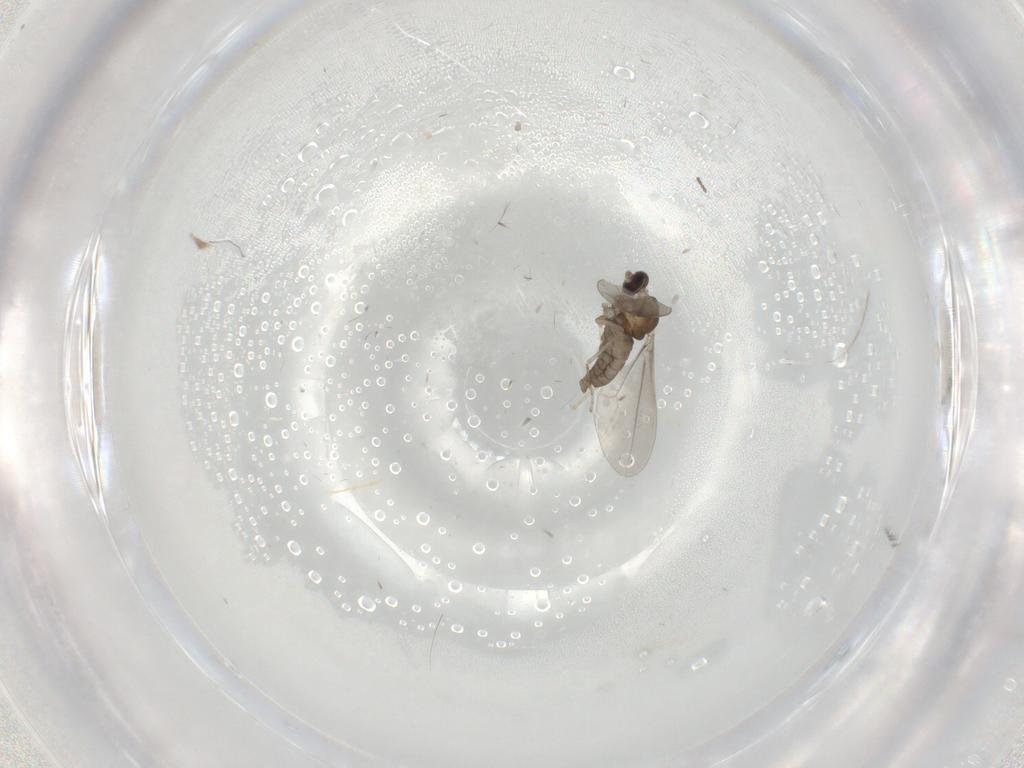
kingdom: Animalia
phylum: Arthropoda
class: Insecta
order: Diptera
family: Cecidomyiidae
